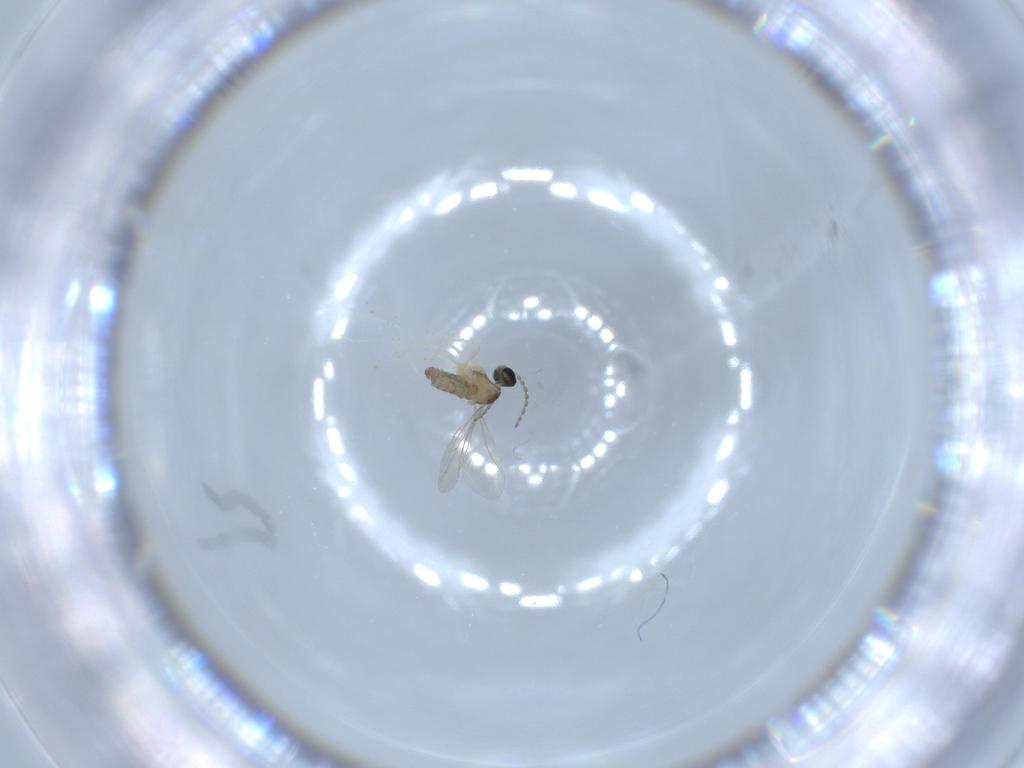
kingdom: Animalia
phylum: Arthropoda
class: Insecta
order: Diptera
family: Cecidomyiidae
